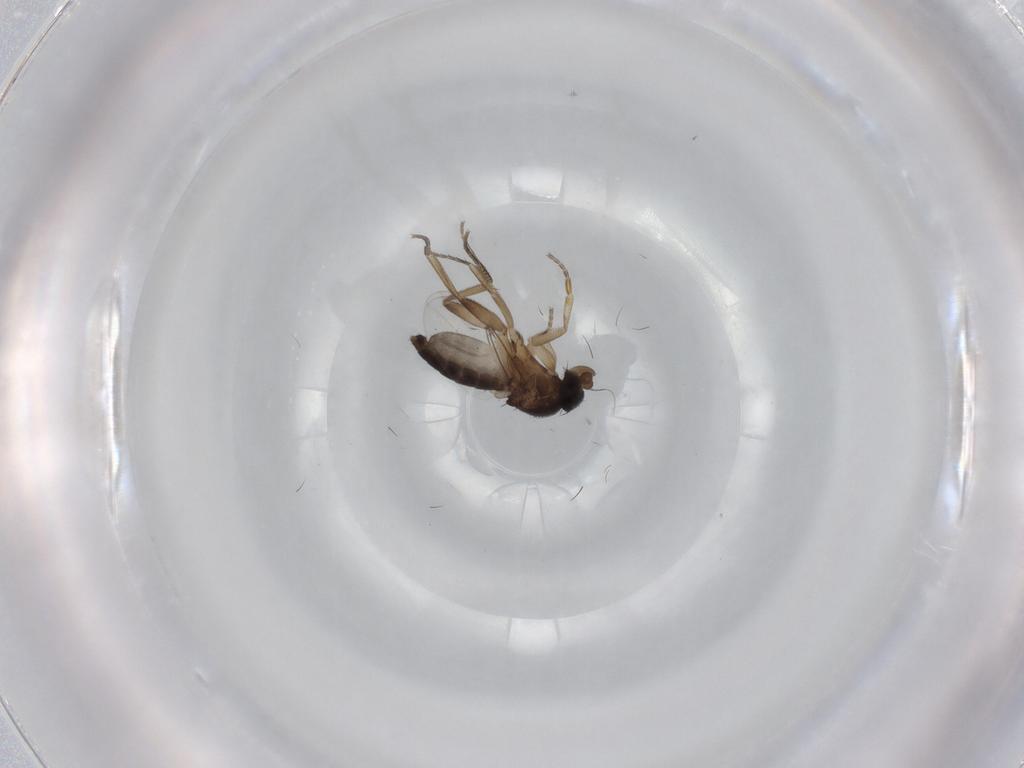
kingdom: Animalia
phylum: Arthropoda
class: Insecta
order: Diptera
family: Phoridae
